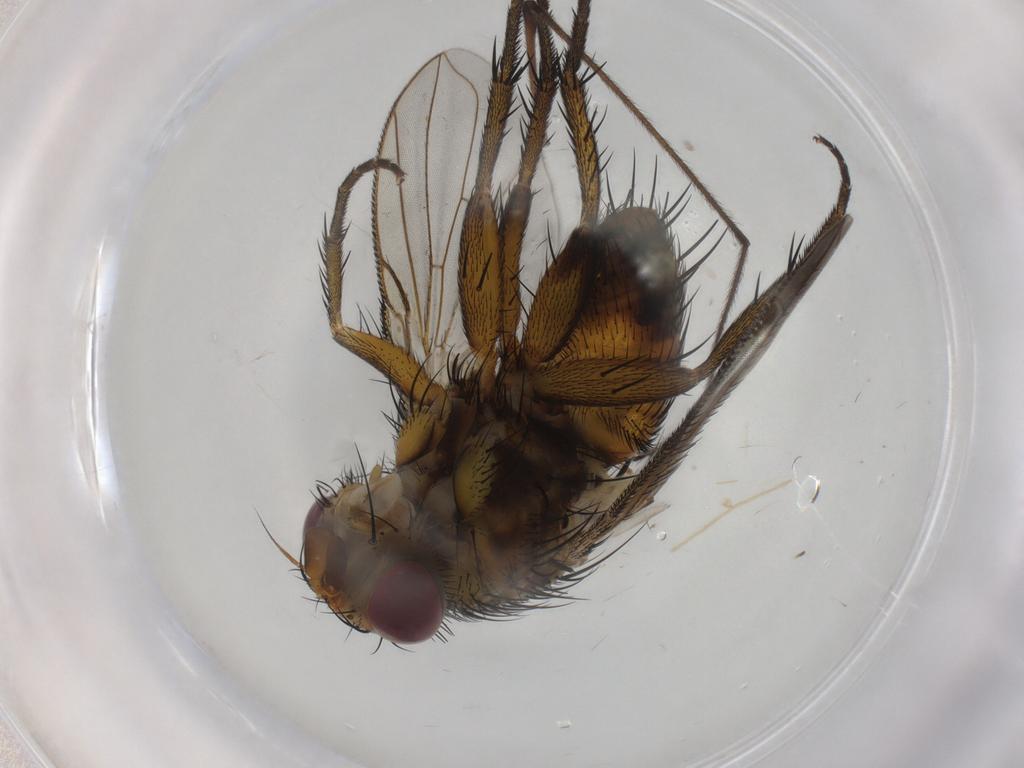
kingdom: Animalia
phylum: Arthropoda
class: Insecta
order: Diptera
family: Tachinidae
